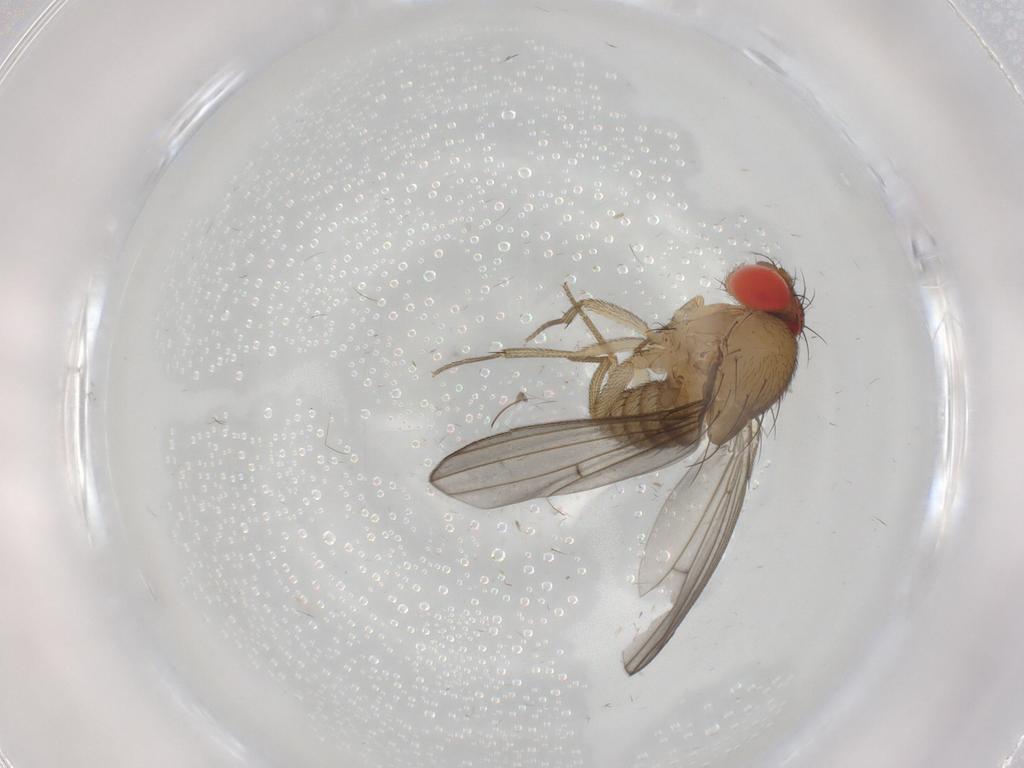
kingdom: Animalia
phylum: Arthropoda
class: Insecta
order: Diptera
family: Drosophilidae
